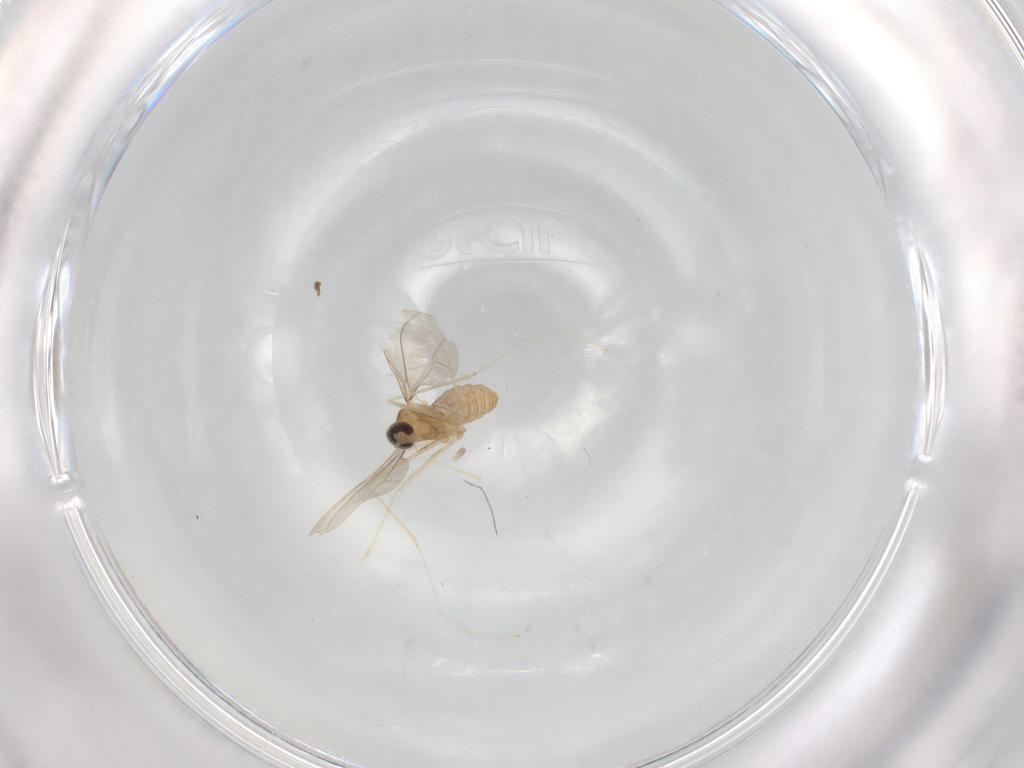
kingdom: Animalia
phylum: Arthropoda
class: Insecta
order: Diptera
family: Cecidomyiidae
